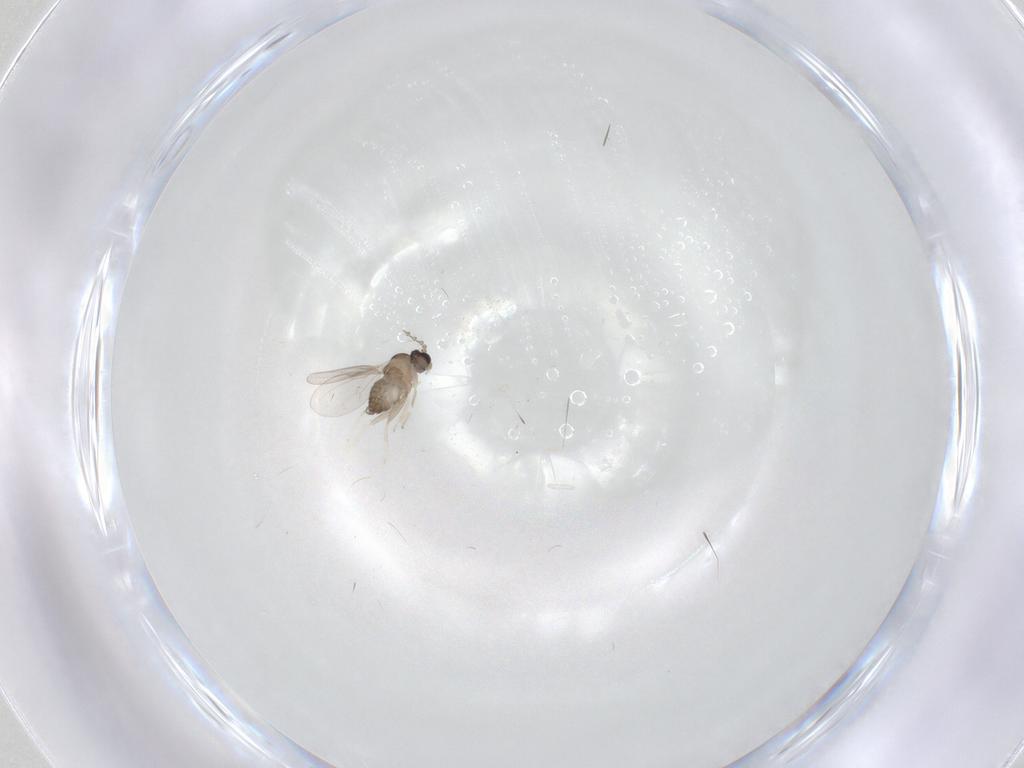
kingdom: Animalia
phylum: Arthropoda
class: Insecta
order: Diptera
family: Cecidomyiidae
